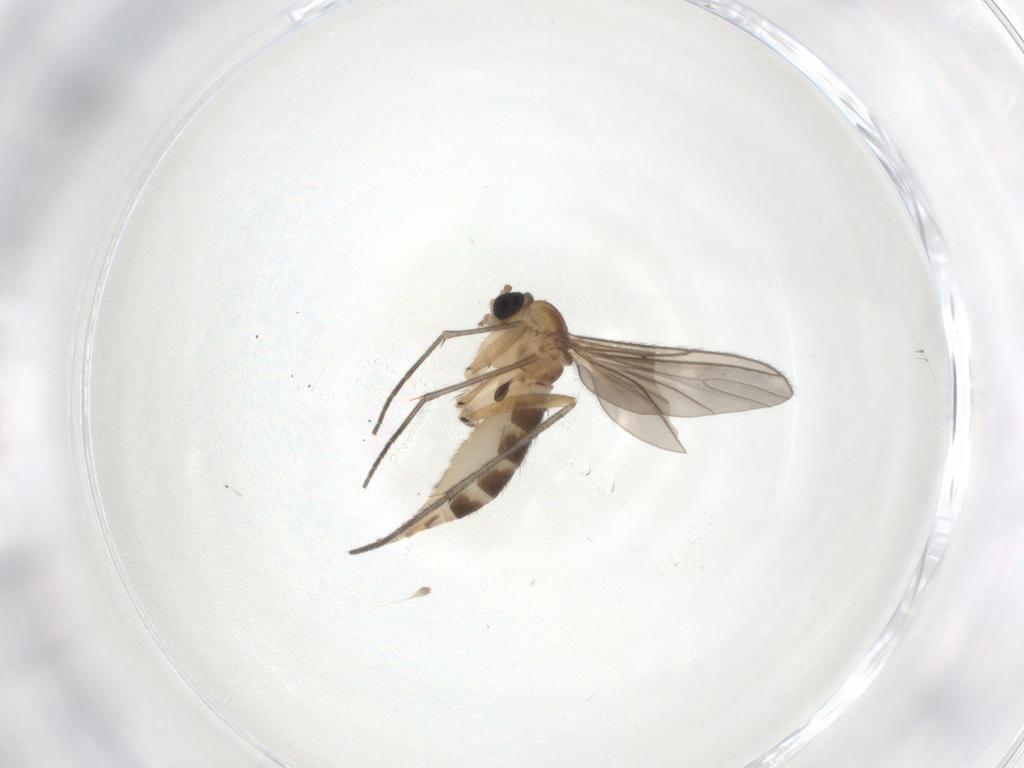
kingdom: Animalia
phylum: Arthropoda
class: Insecta
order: Diptera
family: Sciaridae
